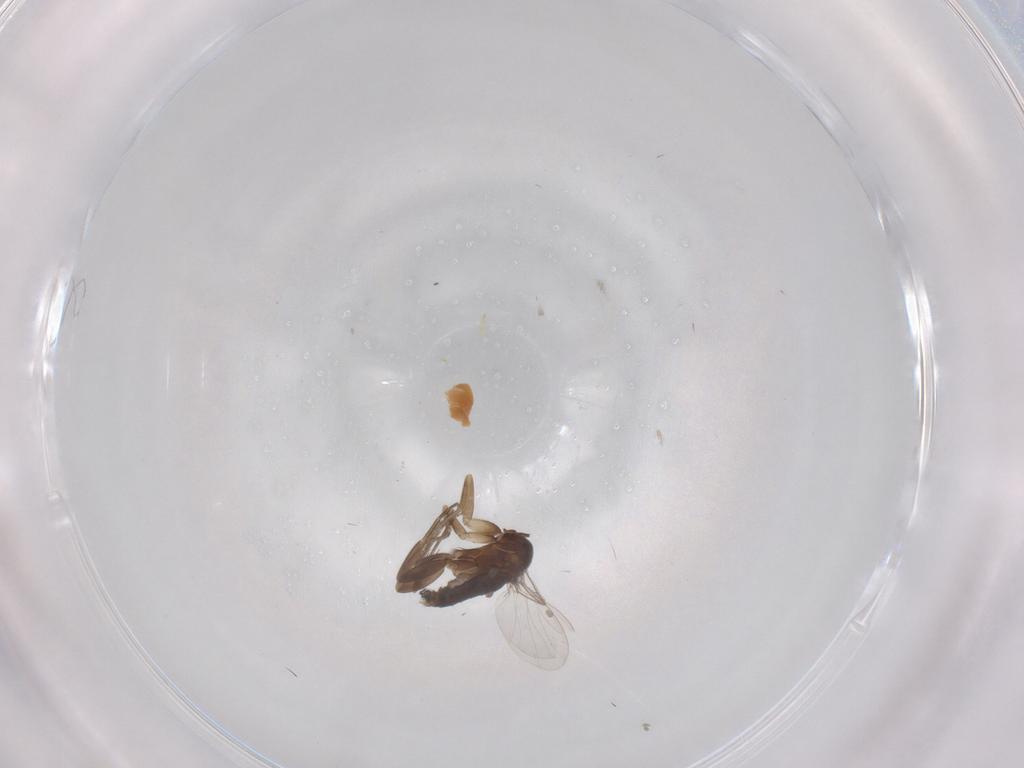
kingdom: Animalia
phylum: Arthropoda
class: Insecta
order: Diptera
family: Phoridae
